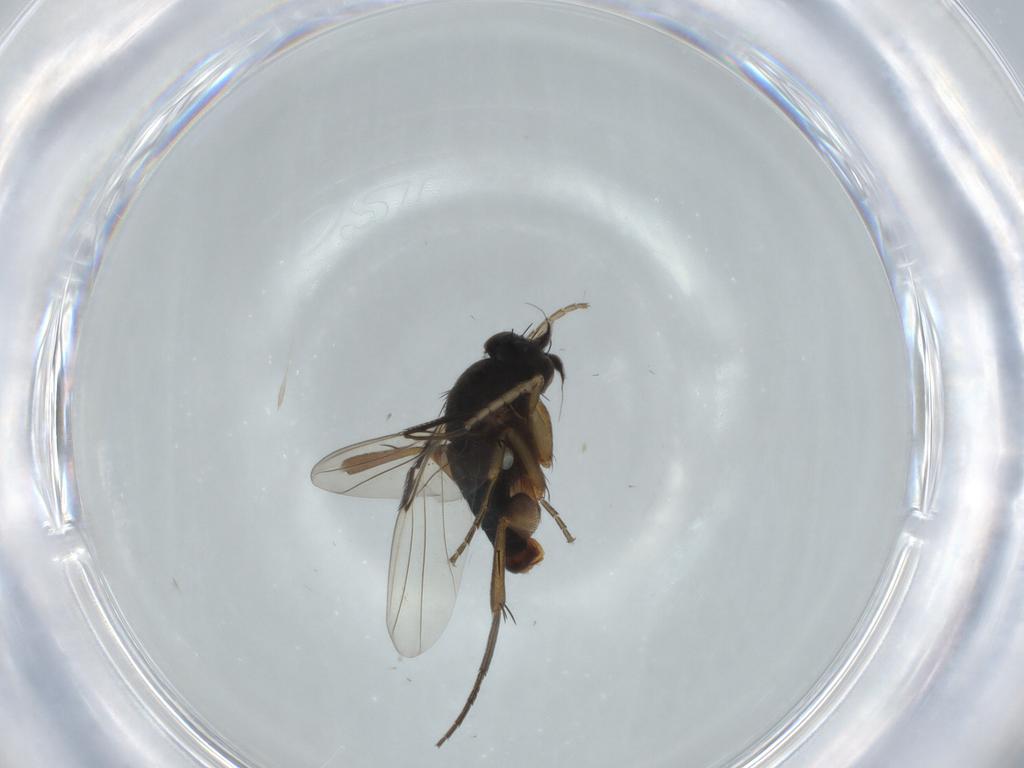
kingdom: Animalia
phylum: Arthropoda
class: Insecta
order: Diptera
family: Phoridae
